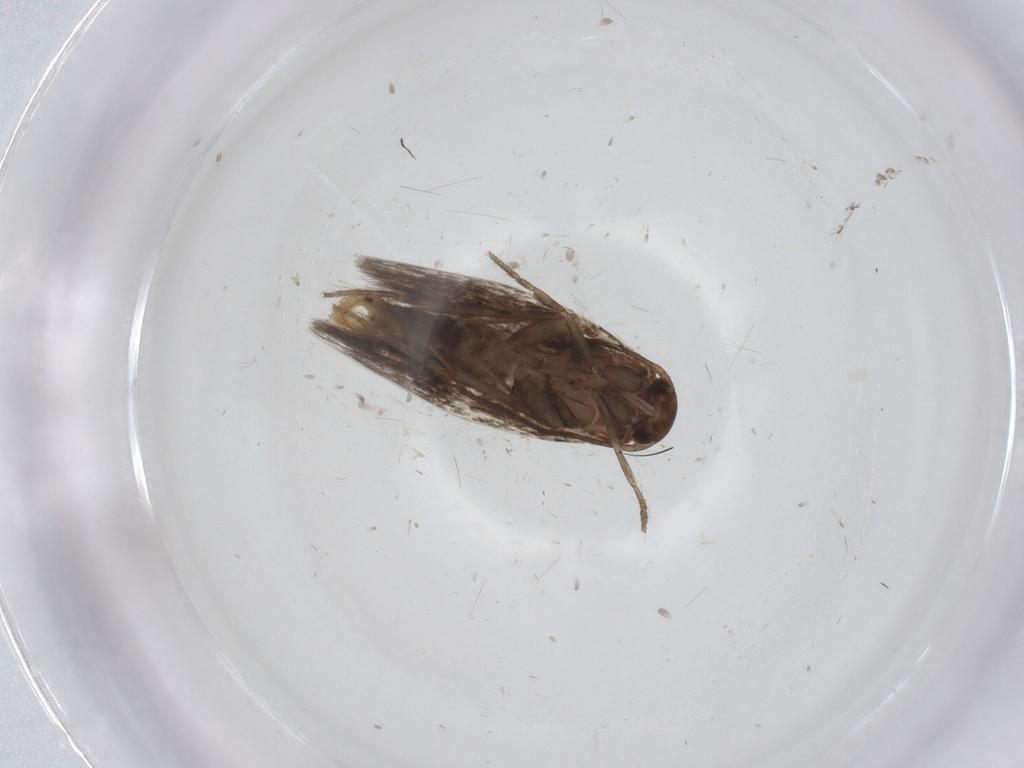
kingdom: Animalia
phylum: Arthropoda
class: Insecta
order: Lepidoptera
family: Elachistidae
